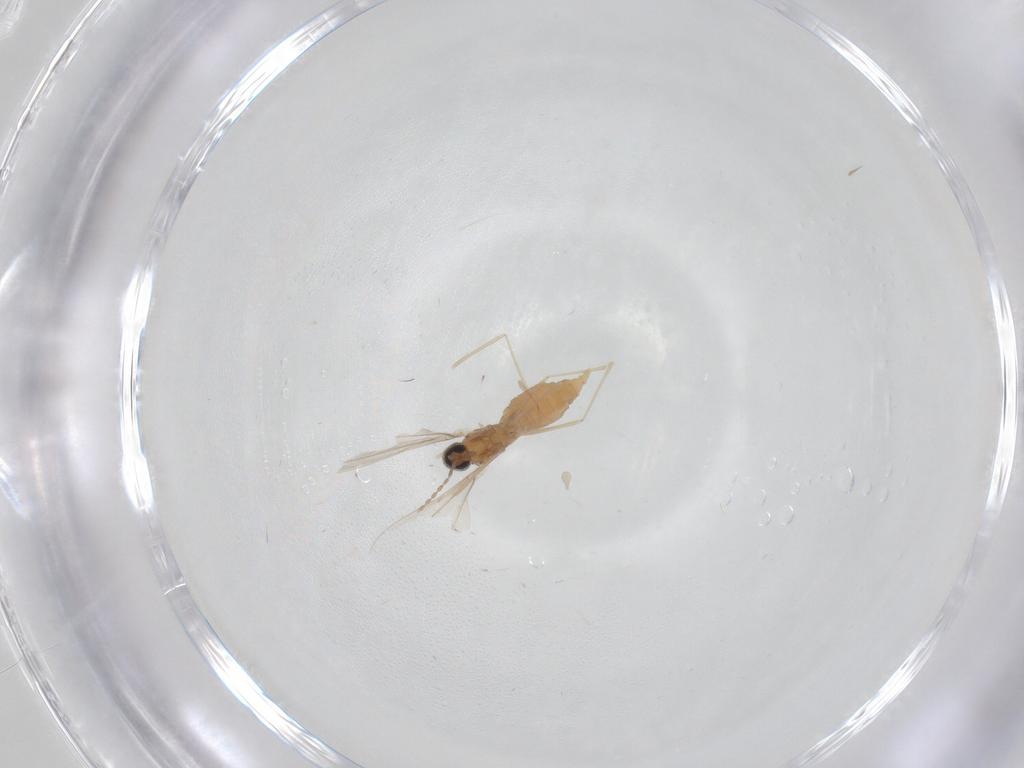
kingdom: Animalia
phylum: Arthropoda
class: Insecta
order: Diptera
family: Cecidomyiidae
